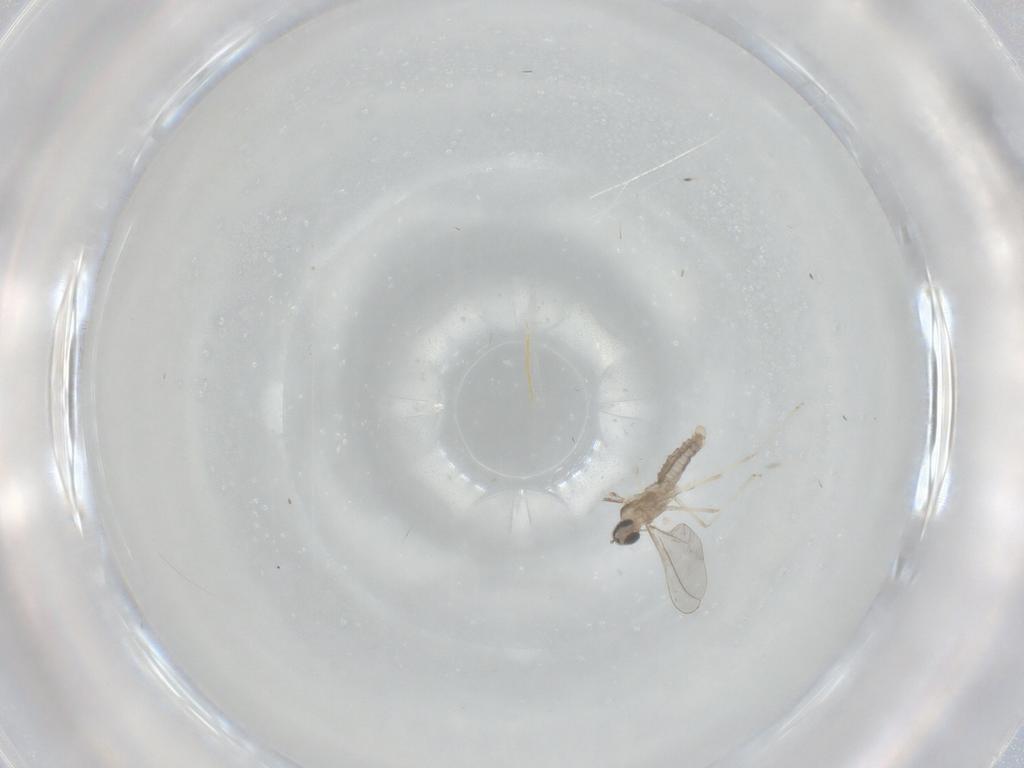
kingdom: Animalia
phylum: Arthropoda
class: Insecta
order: Diptera
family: Cecidomyiidae
